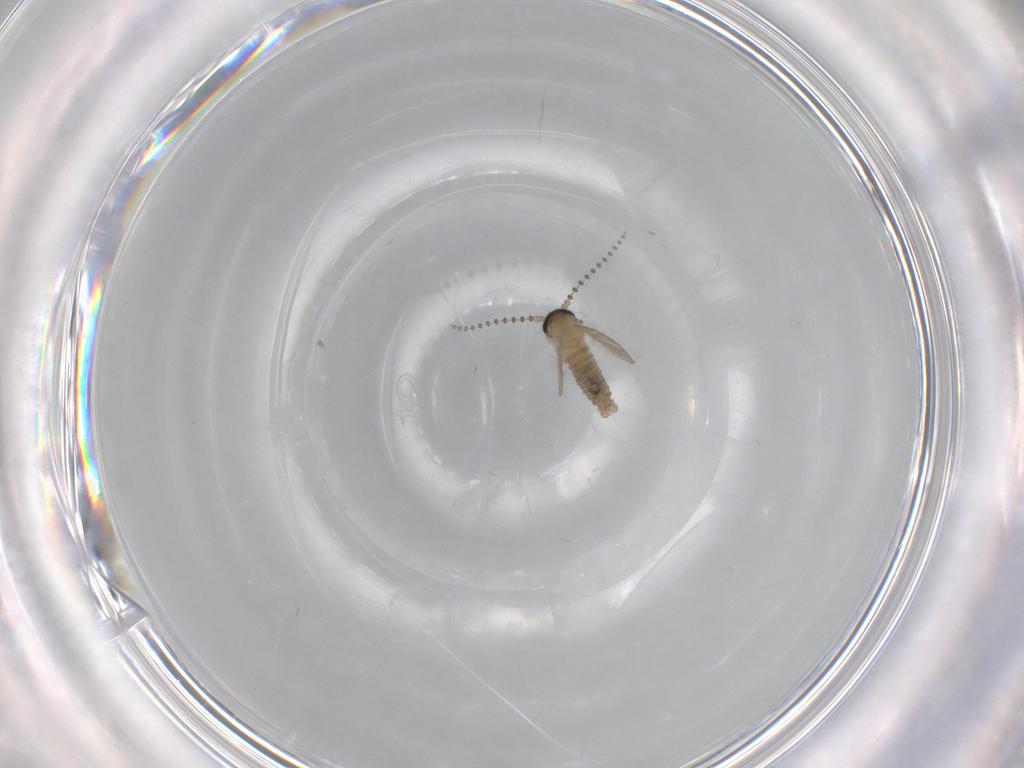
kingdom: Animalia
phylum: Arthropoda
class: Insecta
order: Diptera
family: Psychodidae
